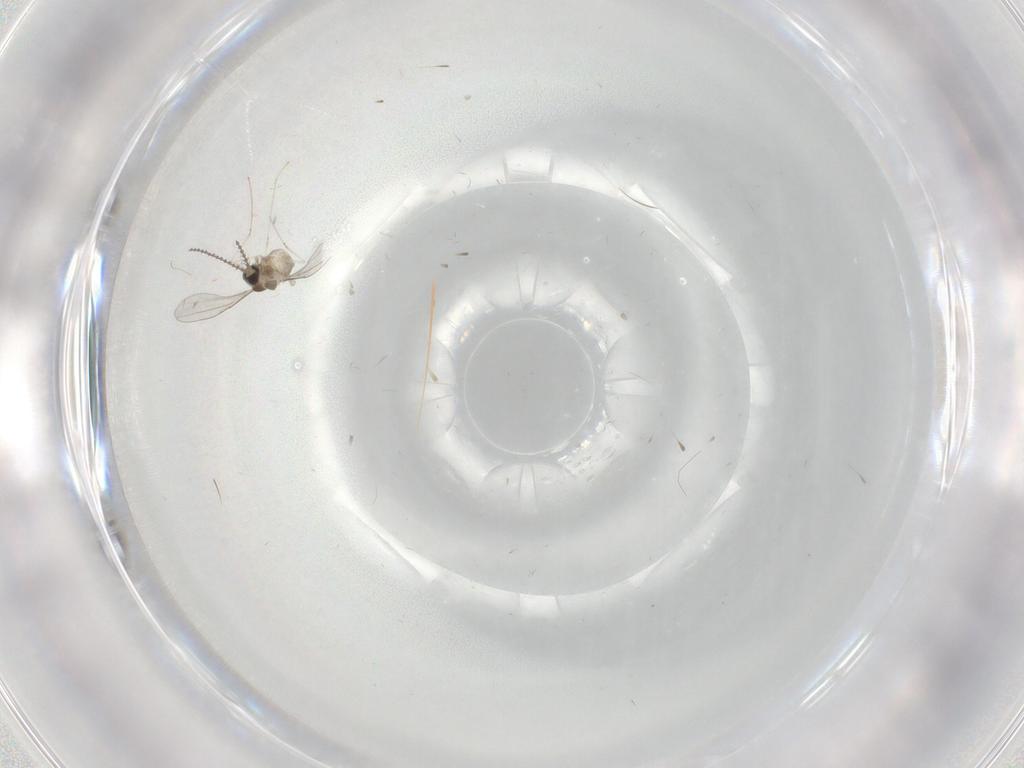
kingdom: Animalia
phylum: Arthropoda
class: Insecta
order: Diptera
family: Cecidomyiidae
